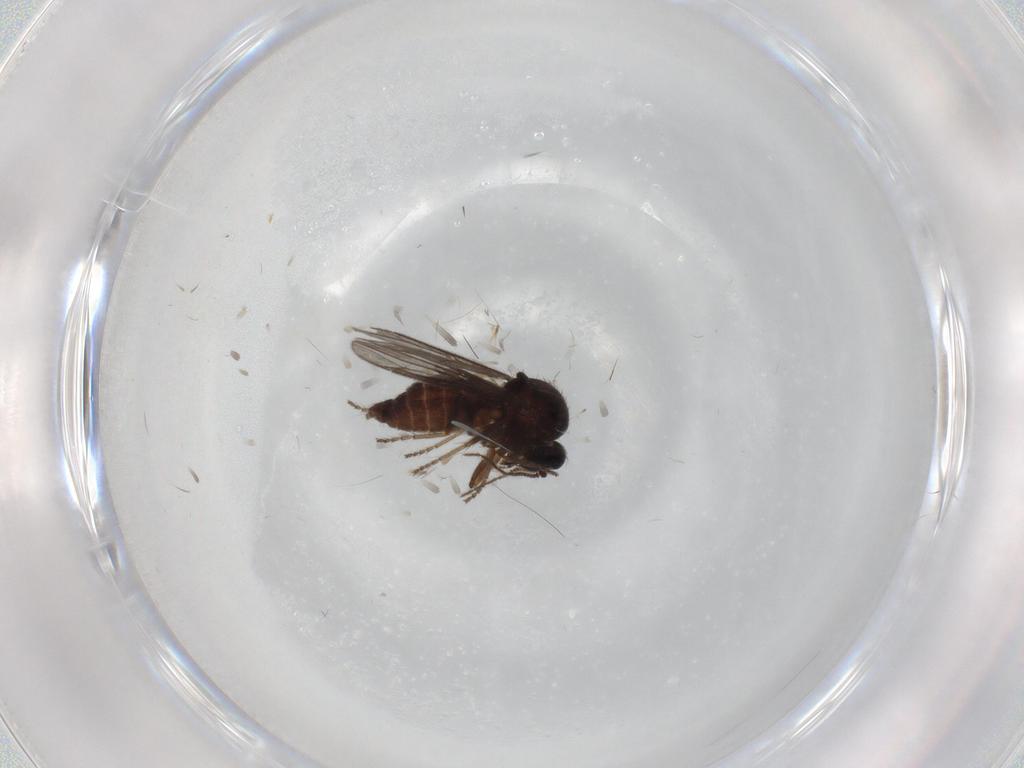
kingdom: Animalia
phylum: Arthropoda
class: Insecta
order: Diptera
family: Ceratopogonidae
